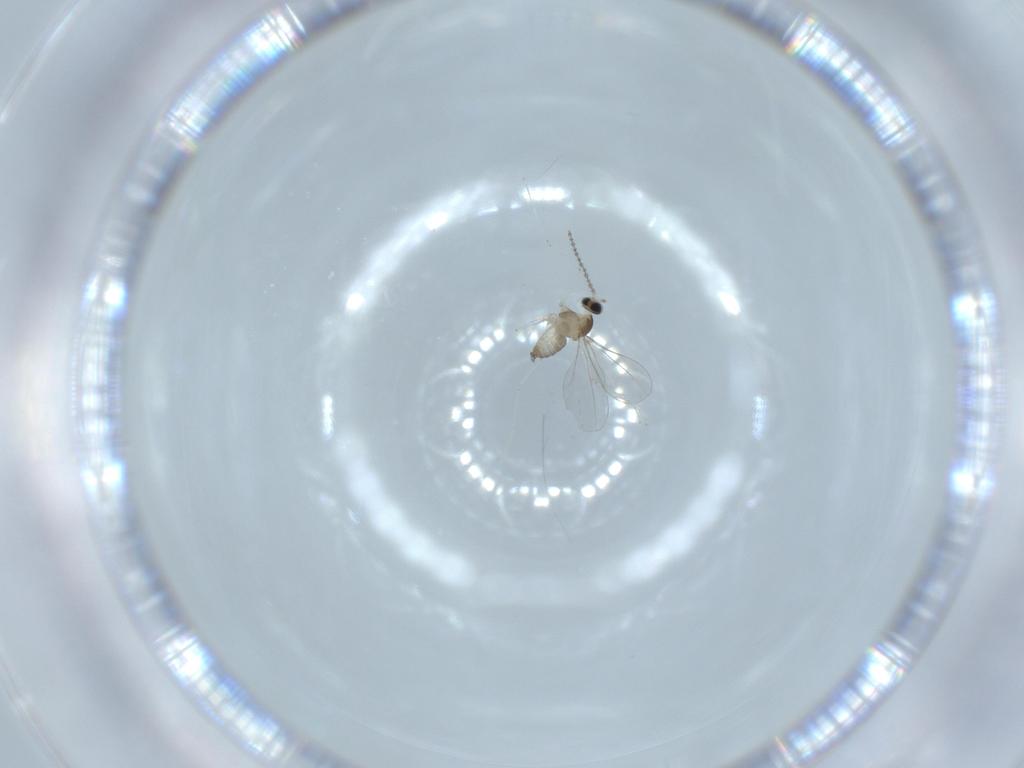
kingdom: Animalia
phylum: Arthropoda
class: Insecta
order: Diptera
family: Cecidomyiidae
